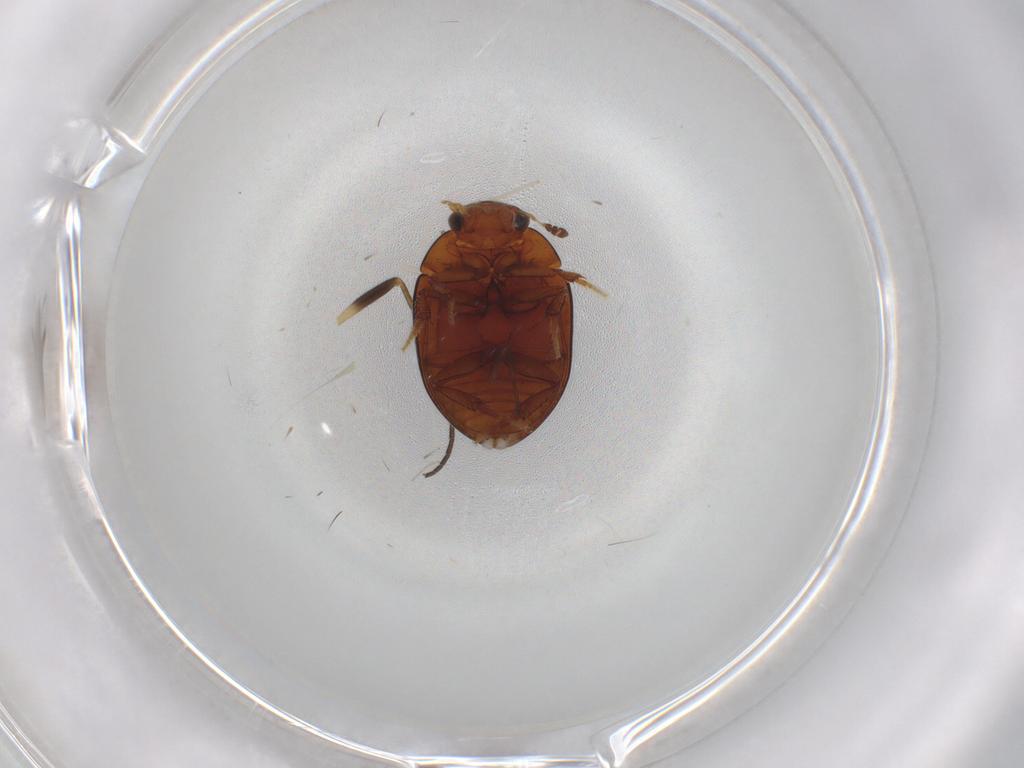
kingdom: Animalia
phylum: Arthropoda
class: Insecta
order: Coleoptera
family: Hydrophilidae
